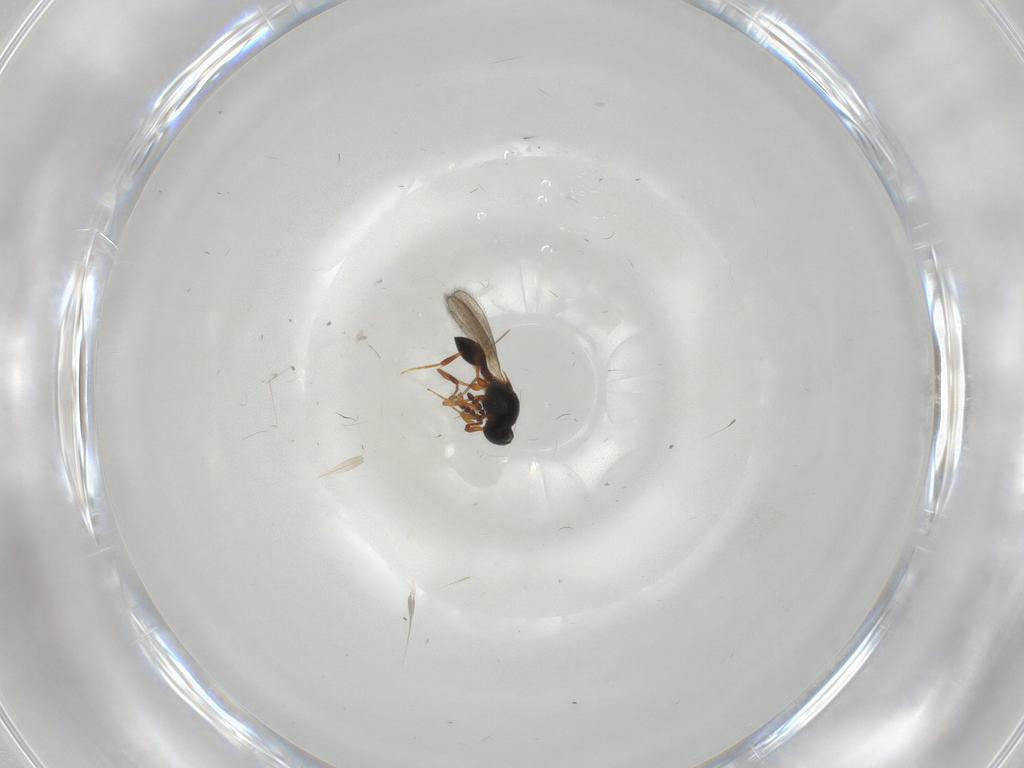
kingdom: Animalia
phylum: Arthropoda
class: Insecta
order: Hymenoptera
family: Platygastridae
